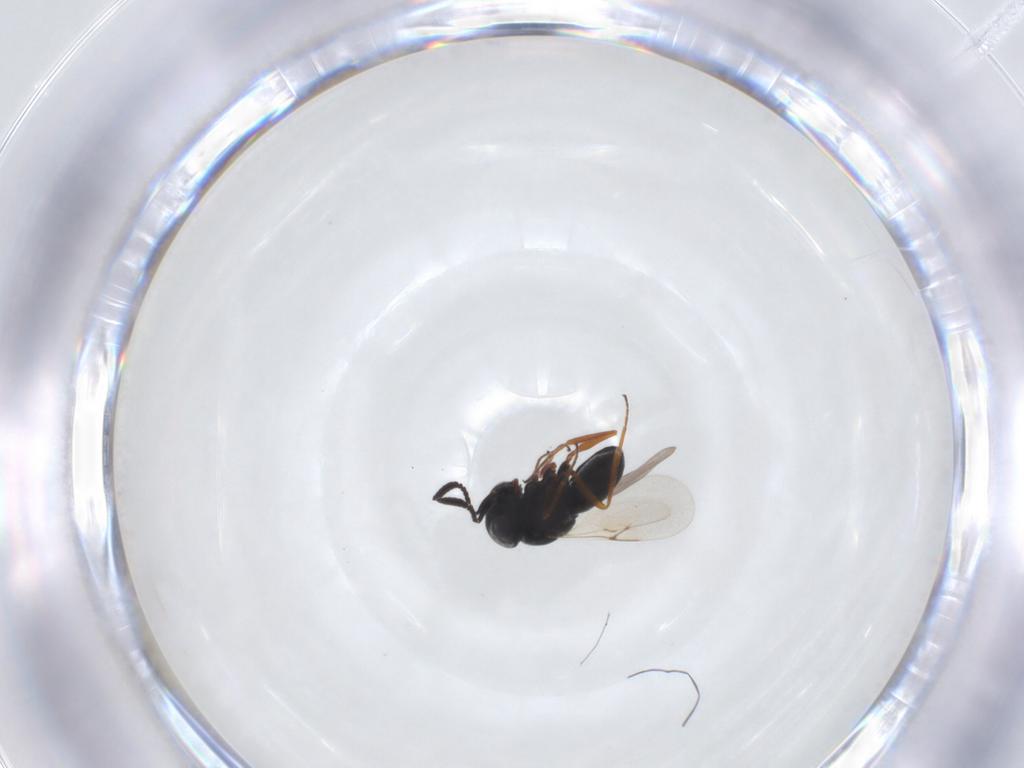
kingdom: Animalia
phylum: Arthropoda
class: Insecta
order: Hymenoptera
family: Scelionidae
